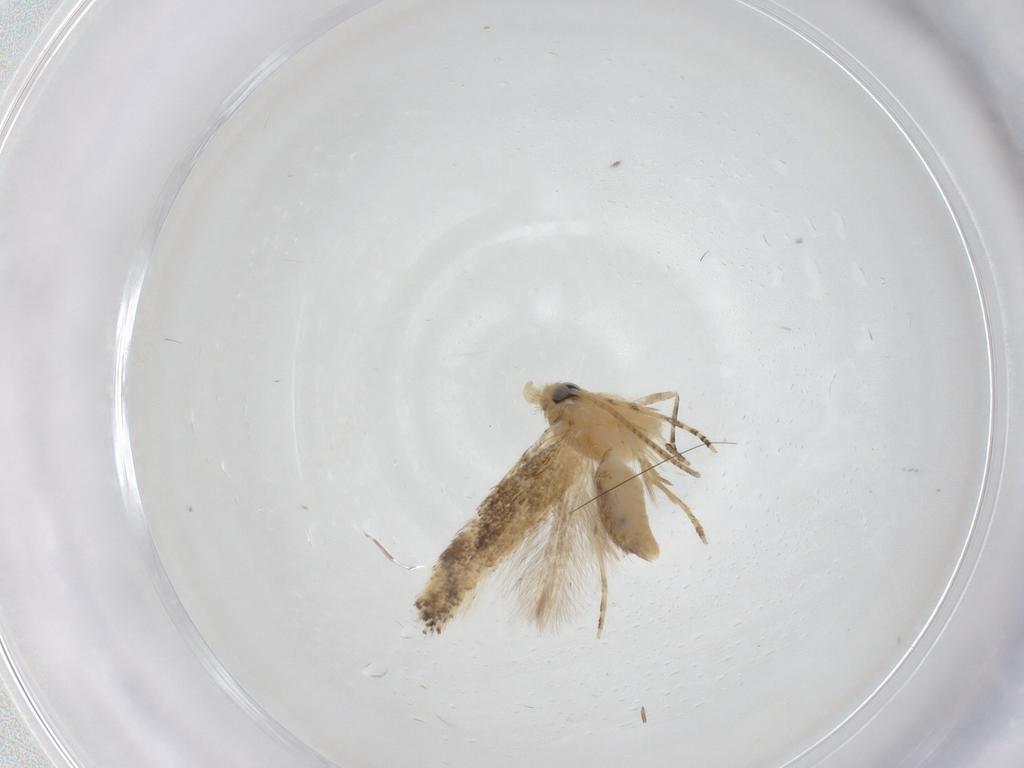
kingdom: Animalia
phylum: Arthropoda
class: Insecta
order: Lepidoptera
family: Bucculatricidae
